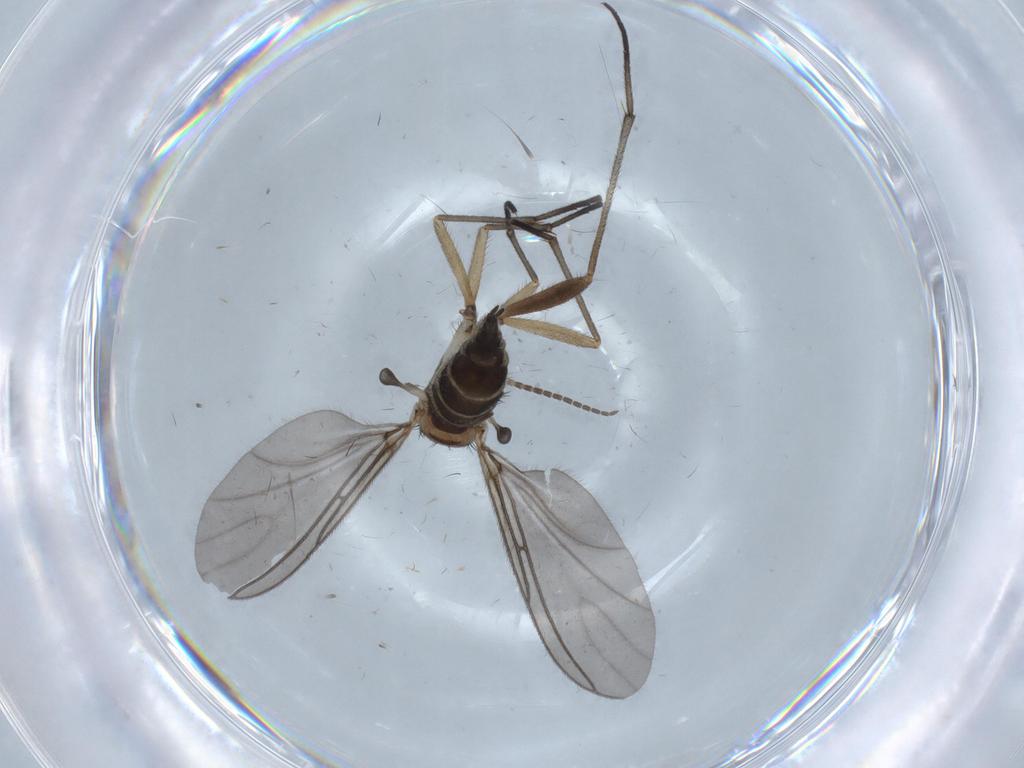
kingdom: Animalia
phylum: Arthropoda
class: Insecta
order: Diptera
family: Sciaridae
